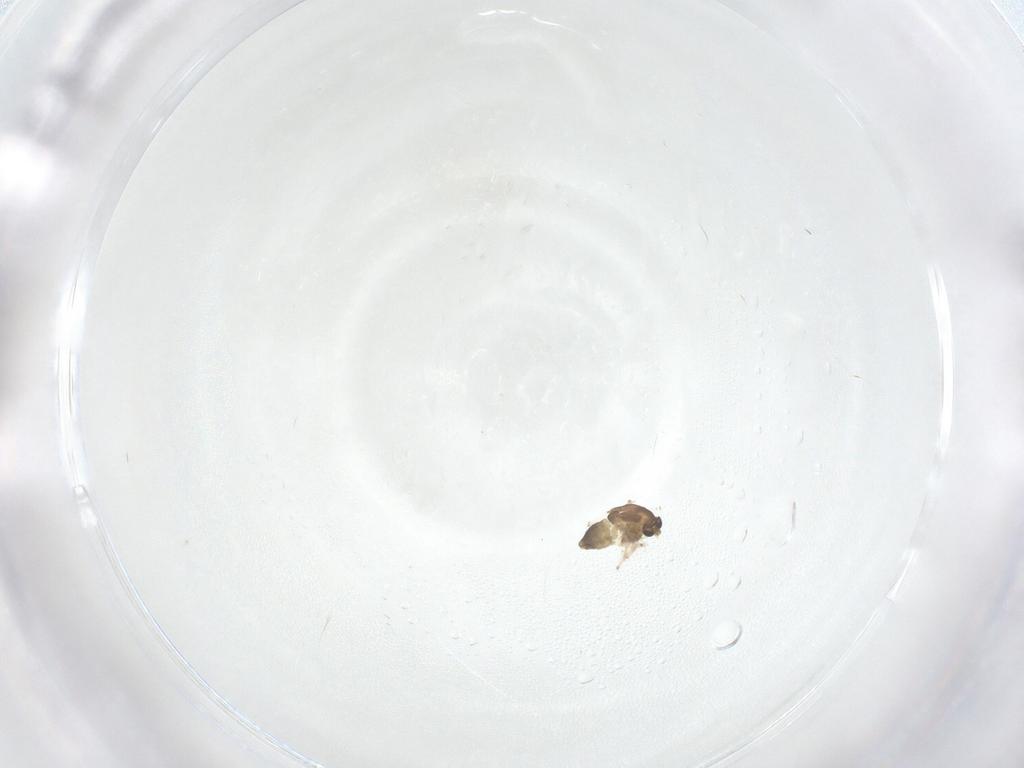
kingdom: Animalia
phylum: Arthropoda
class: Insecta
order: Diptera
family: Chironomidae
